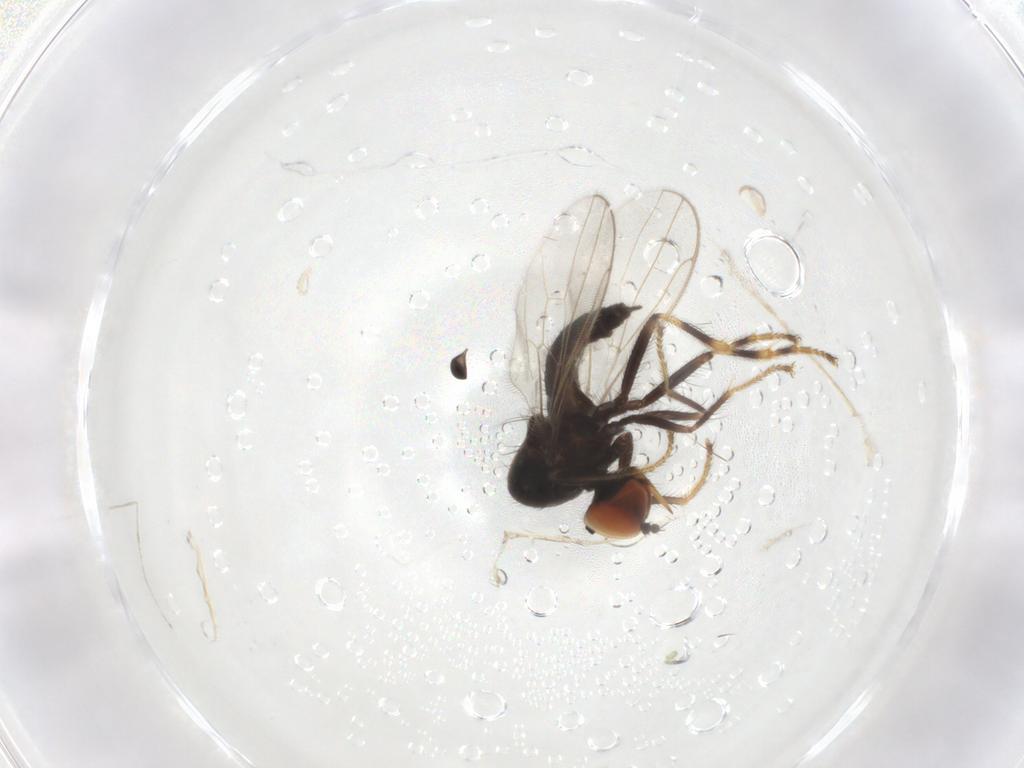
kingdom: Animalia
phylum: Arthropoda
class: Insecta
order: Diptera
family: Hybotidae
